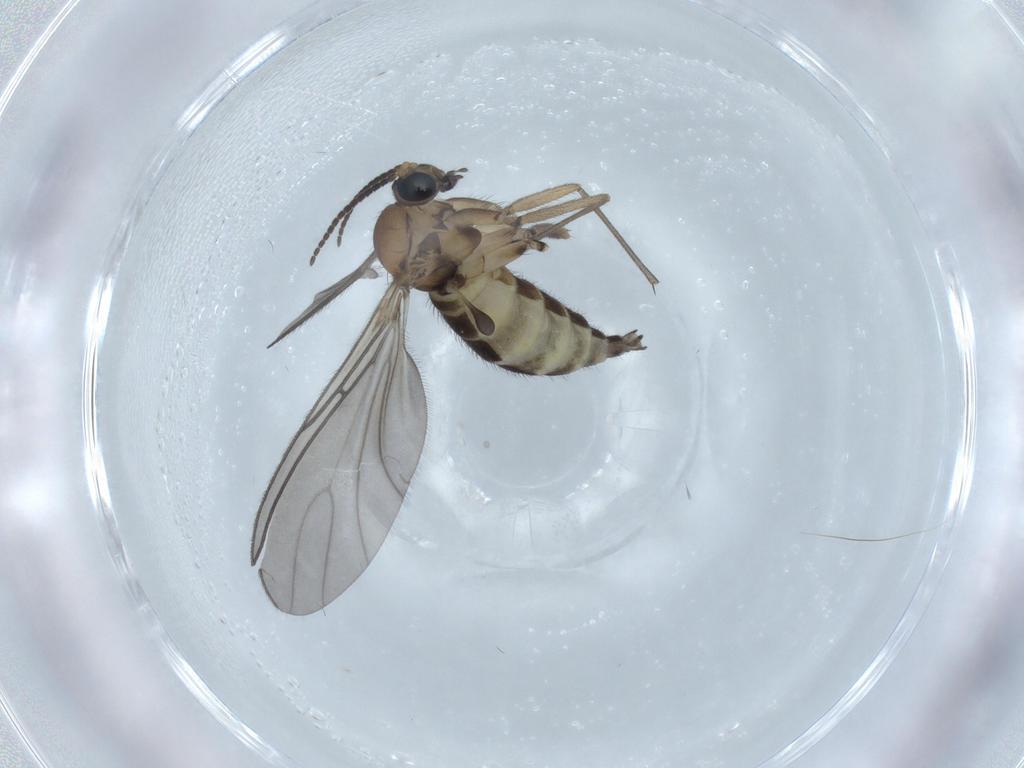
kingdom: Animalia
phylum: Arthropoda
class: Insecta
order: Diptera
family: Sciaridae
